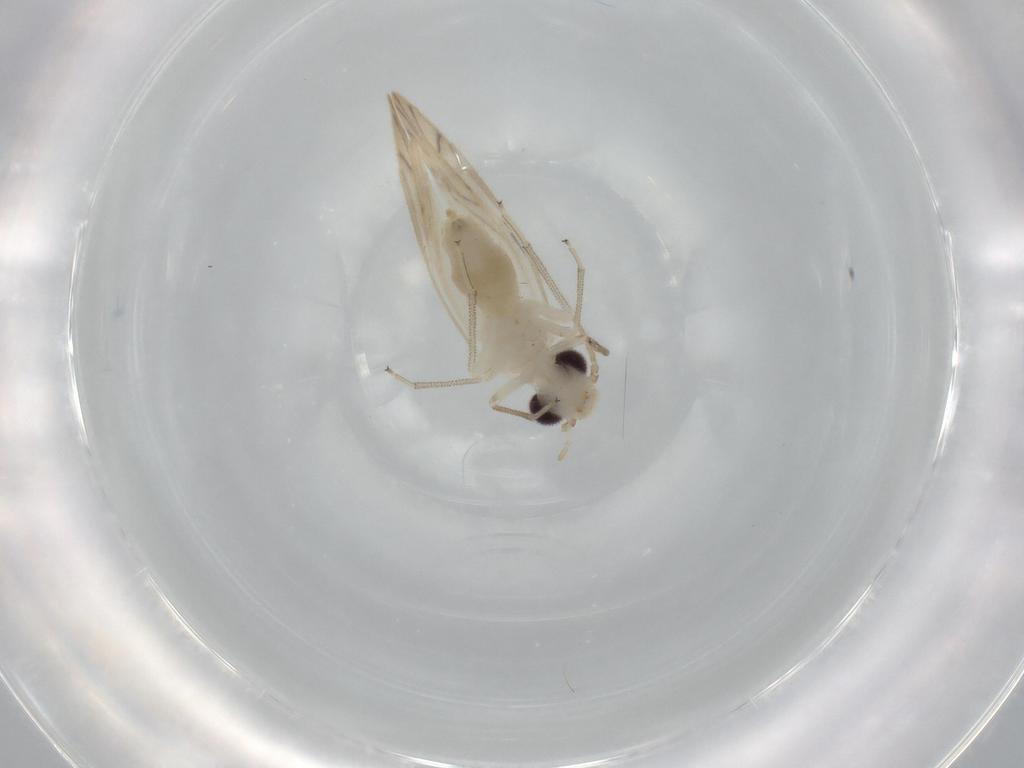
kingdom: Animalia
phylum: Arthropoda
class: Insecta
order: Psocodea
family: Caeciliusidae
